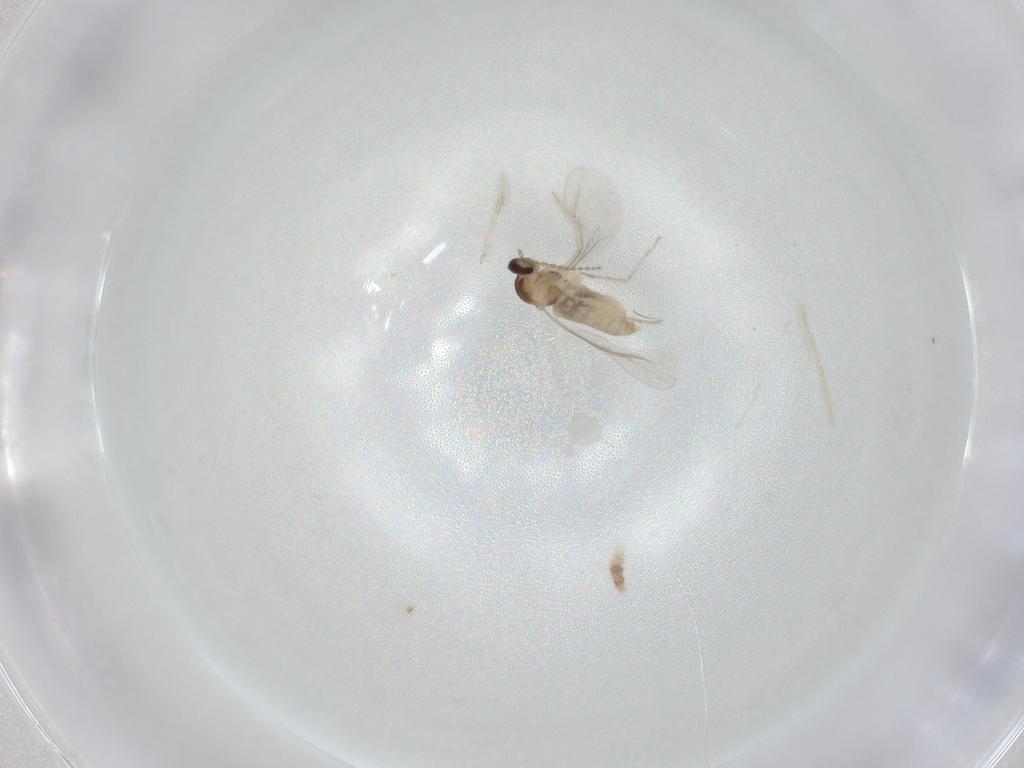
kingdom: Animalia
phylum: Arthropoda
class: Insecta
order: Diptera
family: Cecidomyiidae
